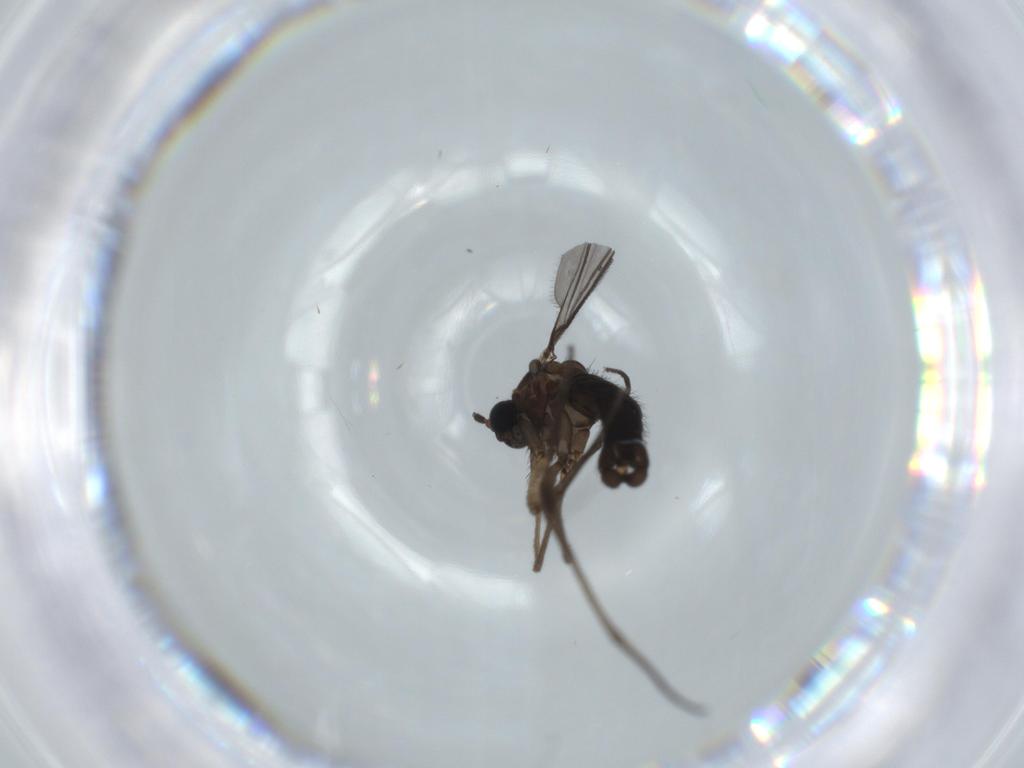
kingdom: Animalia
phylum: Arthropoda
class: Insecta
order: Diptera
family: Sciaridae
